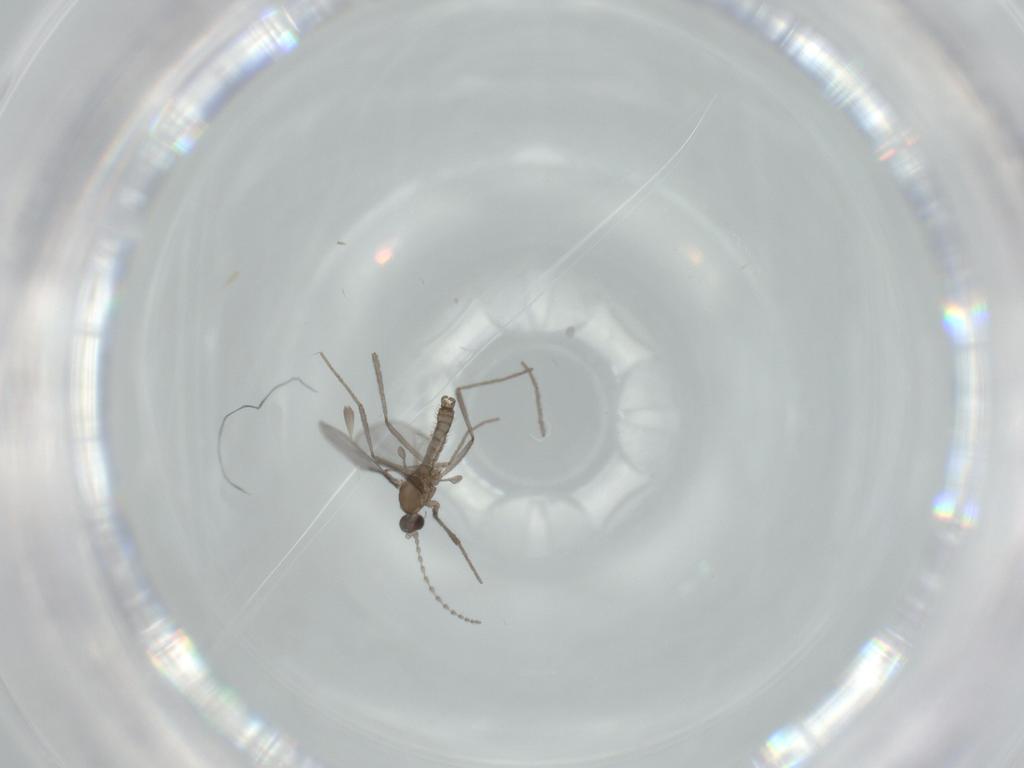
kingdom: Animalia
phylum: Arthropoda
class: Insecta
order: Diptera
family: Cecidomyiidae
